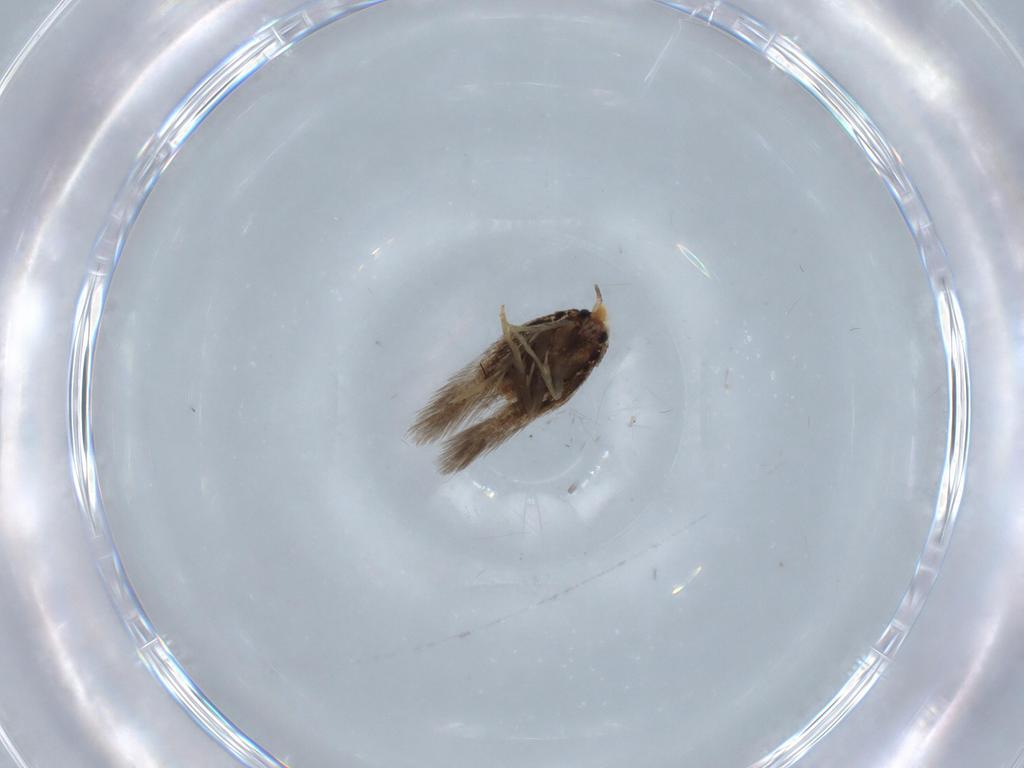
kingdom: Animalia
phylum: Arthropoda
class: Insecta
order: Lepidoptera
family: Nepticulidae
